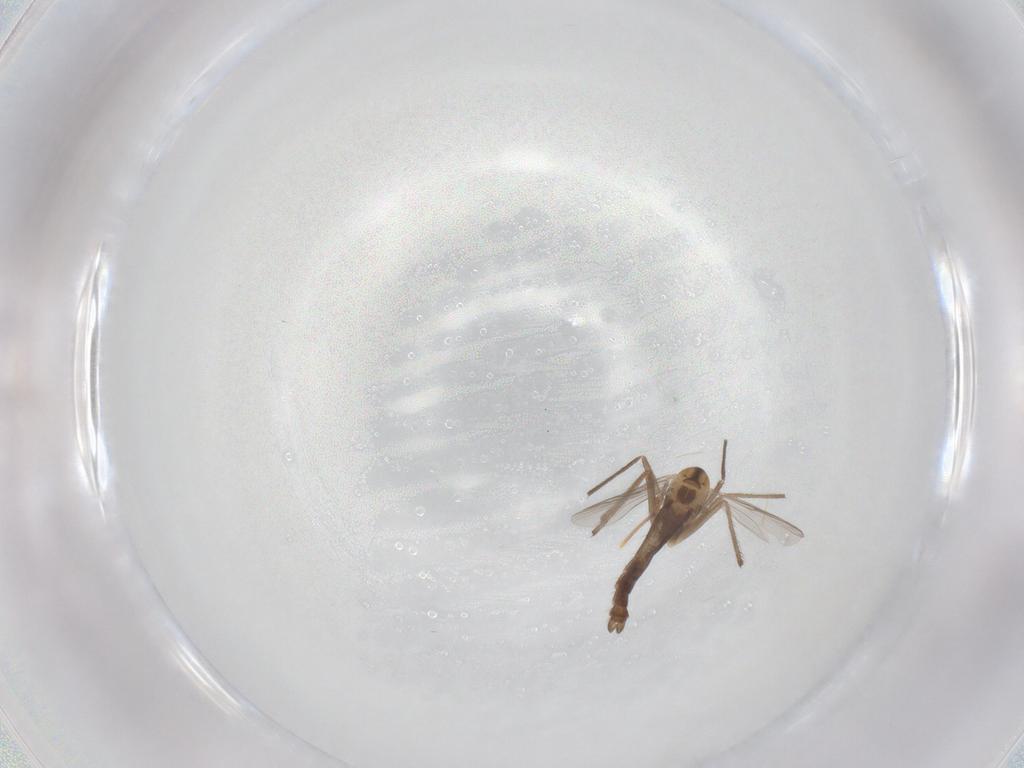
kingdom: Animalia
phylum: Arthropoda
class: Insecta
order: Diptera
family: Chironomidae
